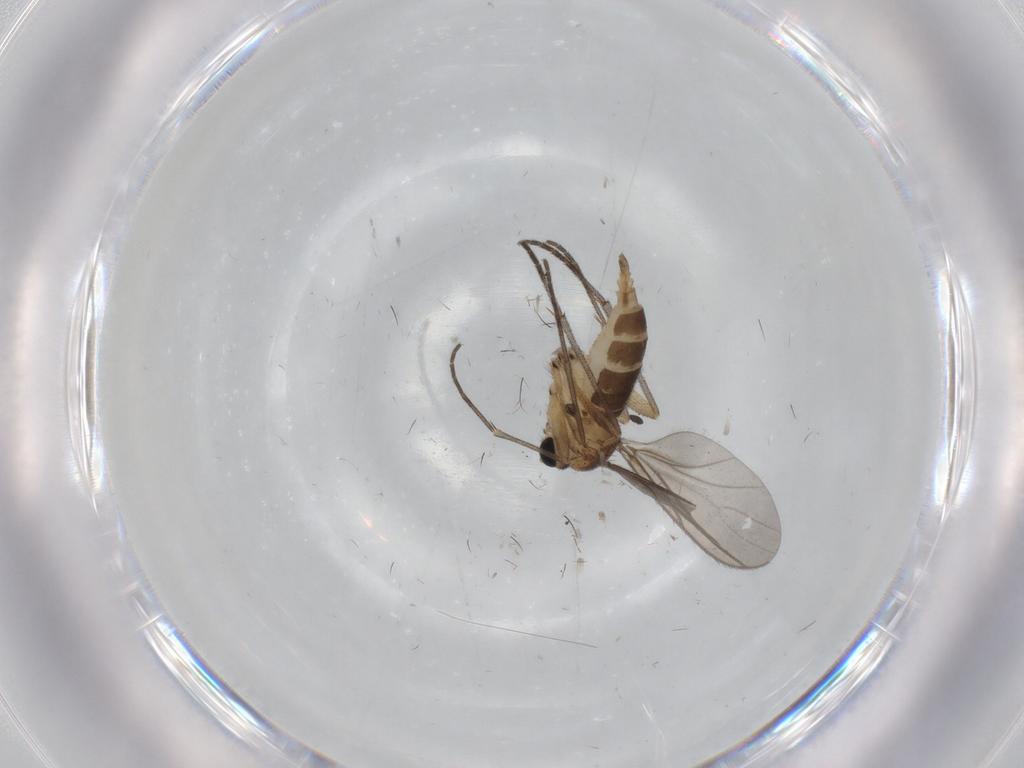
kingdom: Animalia
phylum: Arthropoda
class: Insecta
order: Diptera
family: Sciaridae
